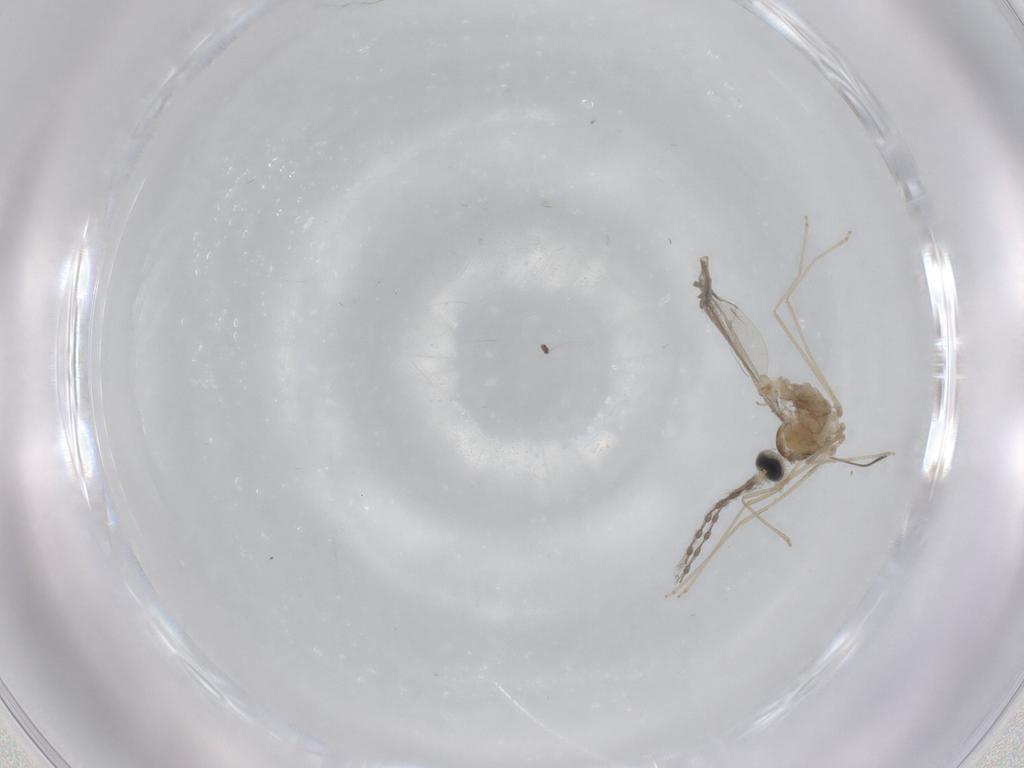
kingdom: Animalia
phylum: Arthropoda
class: Insecta
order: Diptera
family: Cecidomyiidae
